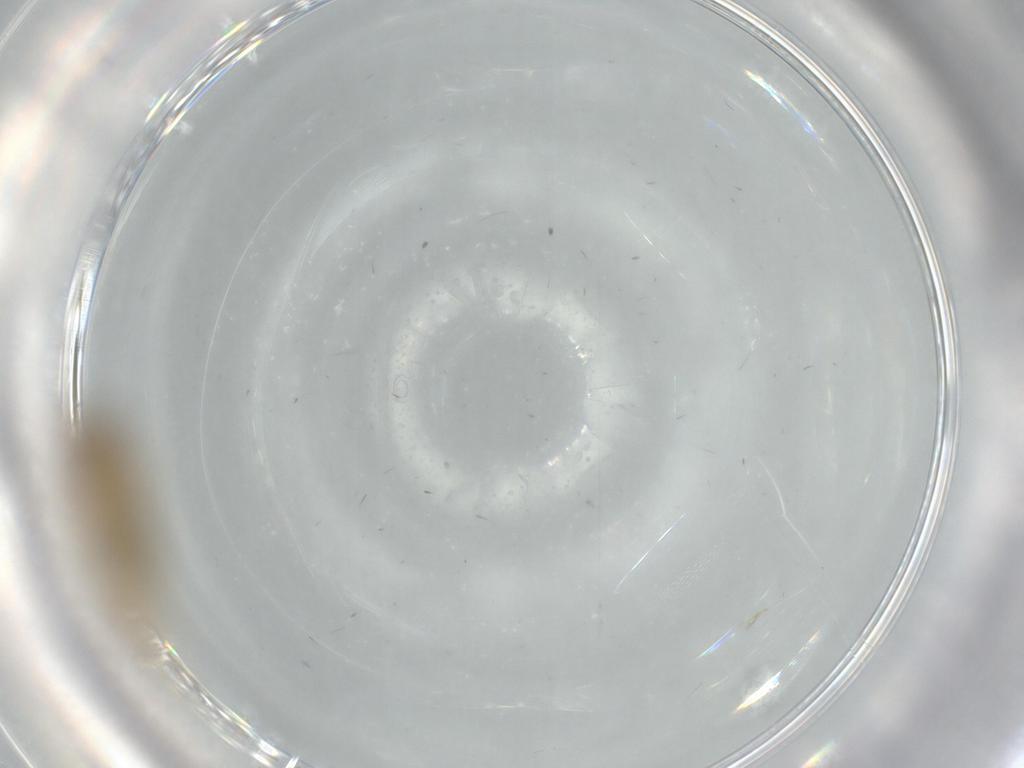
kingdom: Animalia
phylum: Arthropoda
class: Insecta
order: Psocodea
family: Caeciliusidae
